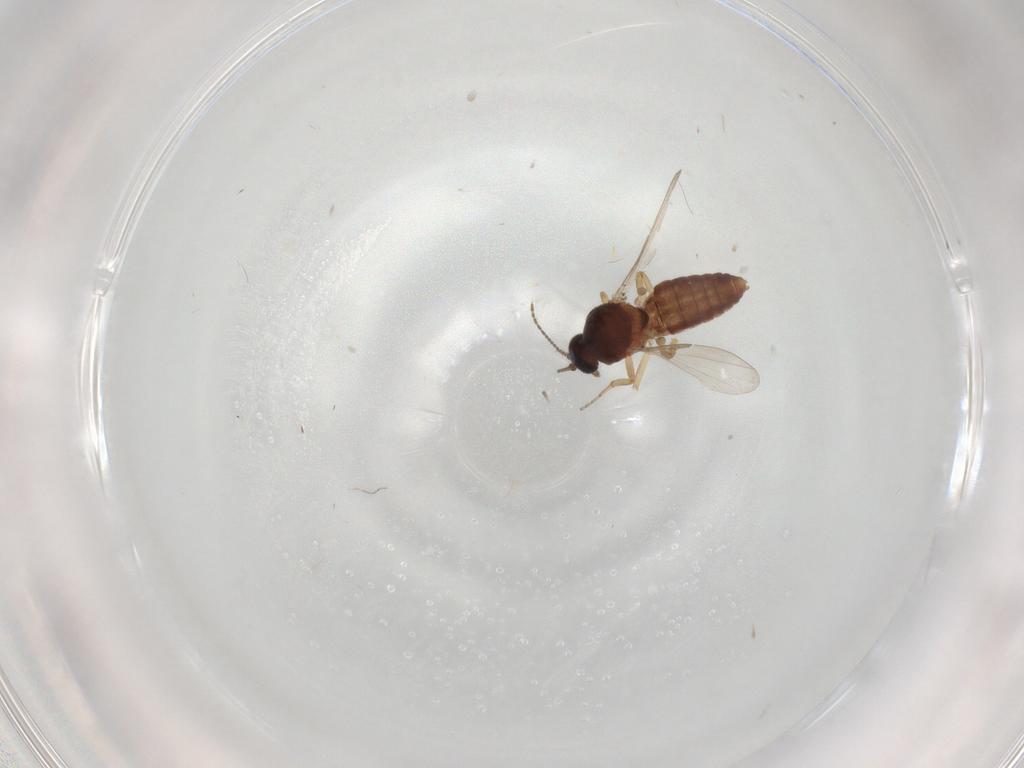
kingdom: Animalia
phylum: Arthropoda
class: Insecta
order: Diptera
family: Ceratopogonidae
